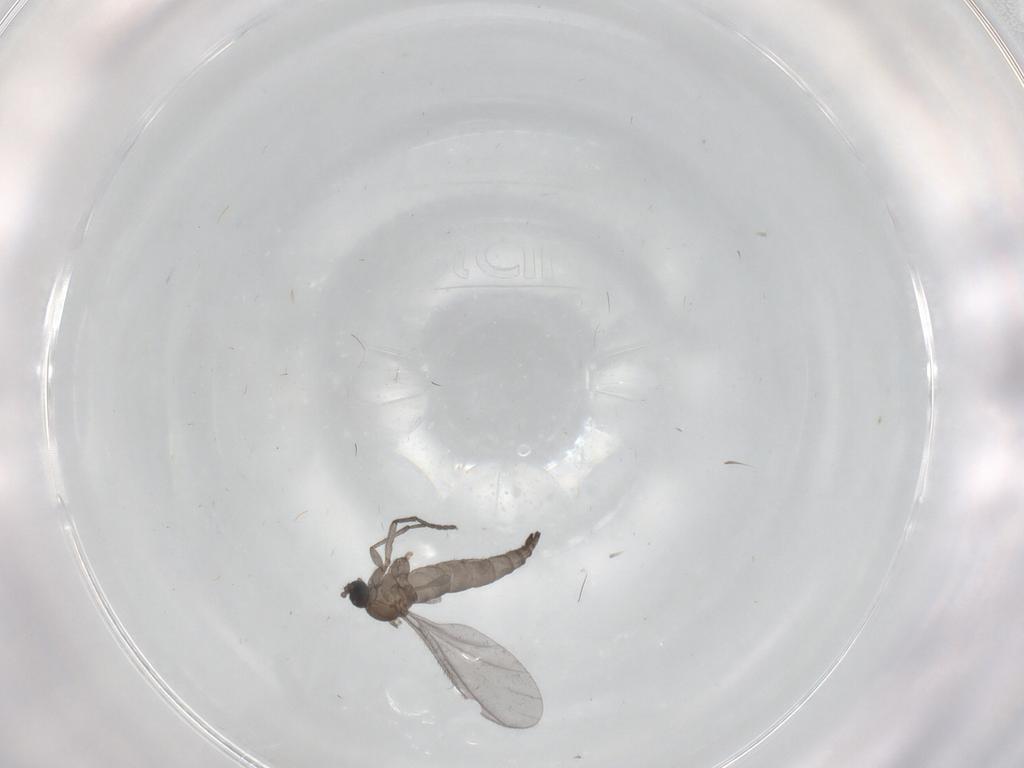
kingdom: Animalia
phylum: Arthropoda
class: Insecta
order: Diptera
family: Sciaridae
